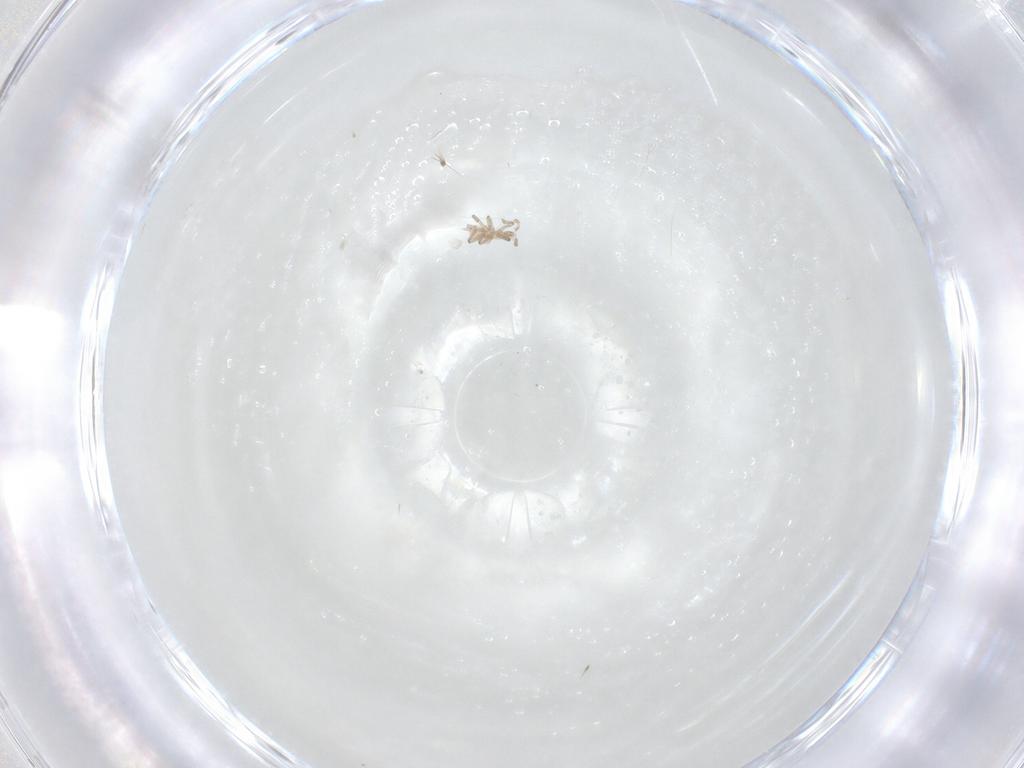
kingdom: Animalia
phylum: Arthropoda
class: Insecta
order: Hemiptera
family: Aphididae
